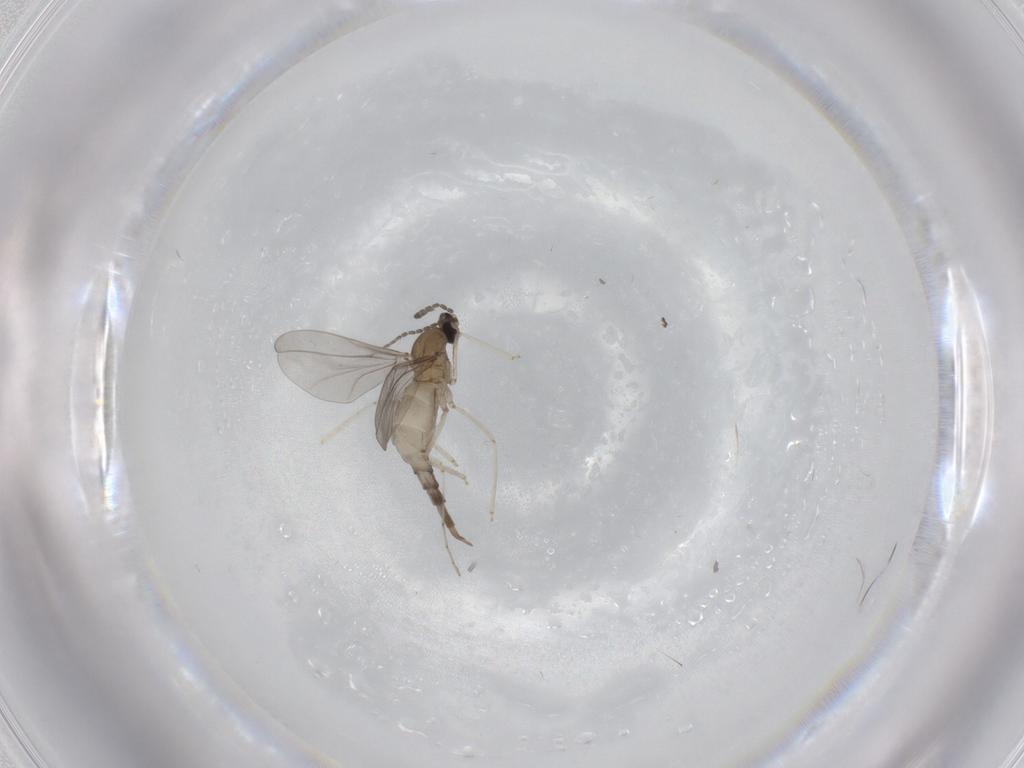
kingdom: Animalia
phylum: Arthropoda
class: Insecta
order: Diptera
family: Cecidomyiidae
